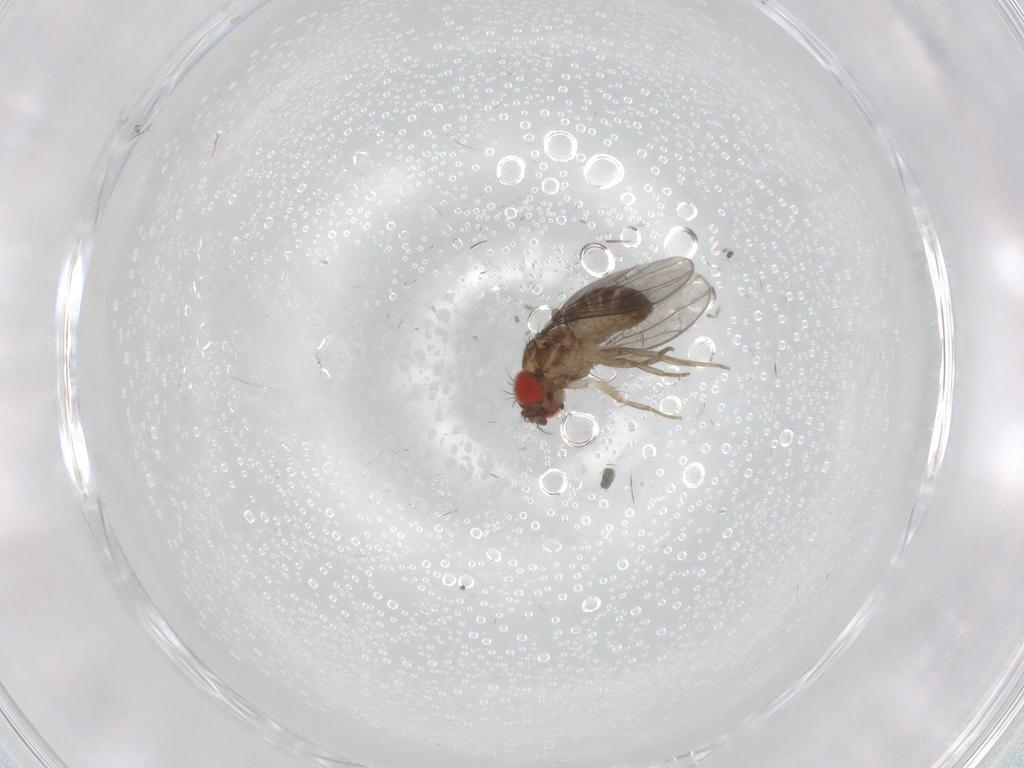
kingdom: Animalia
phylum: Arthropoda
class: Insecta
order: Diptera
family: Drosophilidae
